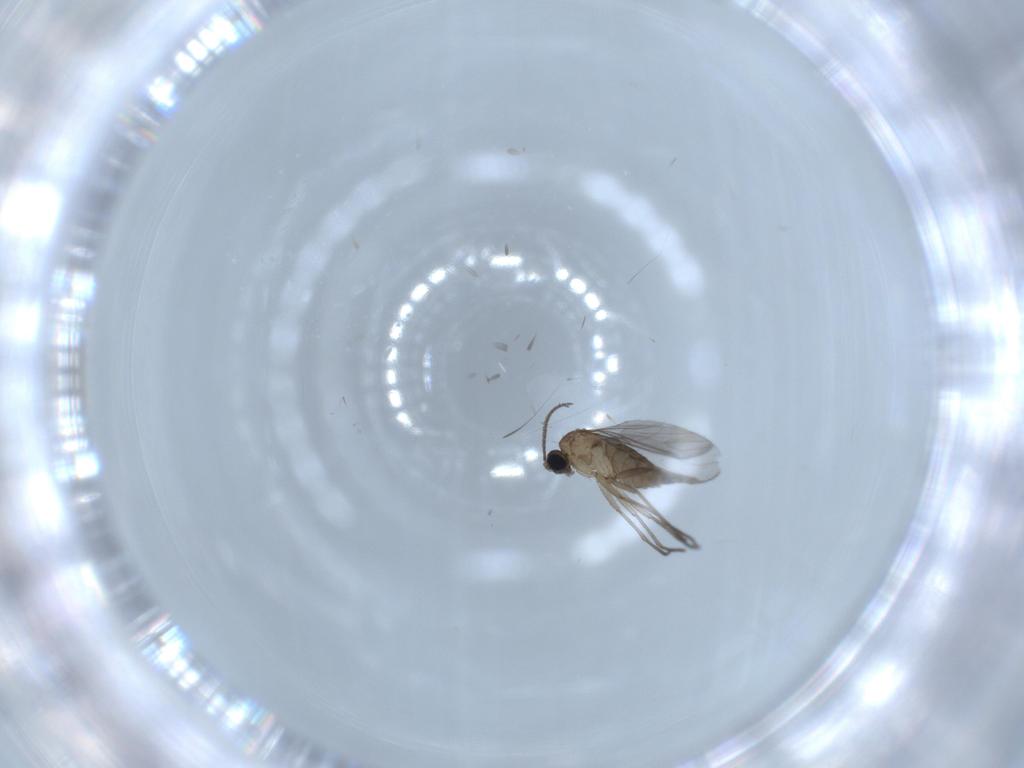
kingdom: Animalia
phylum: Arthropoda
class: Insecta
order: Diptera
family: Sciaridae
